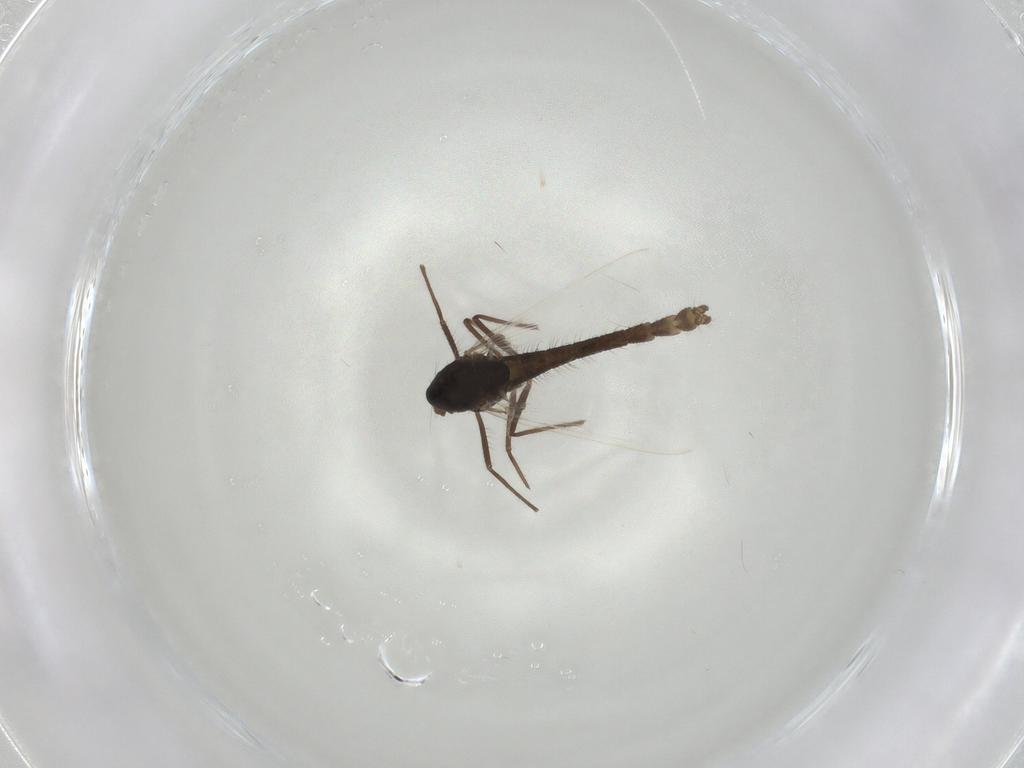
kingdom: Animalia
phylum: Arthropoda
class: Insecta
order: Diptera
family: Chironomidae
